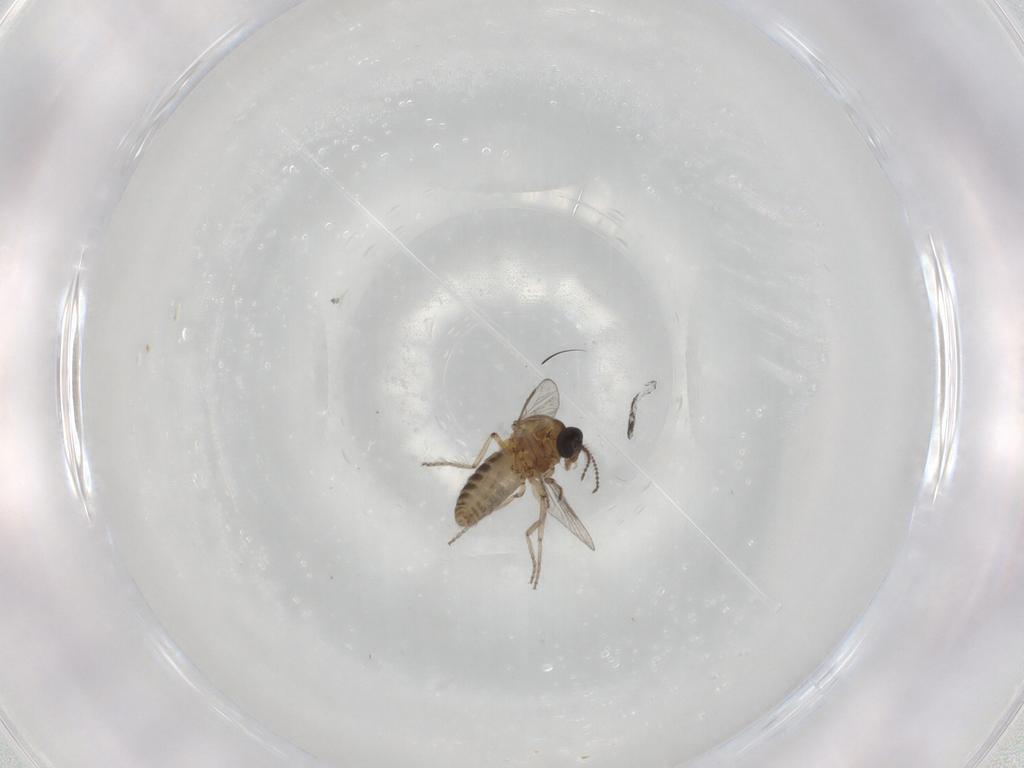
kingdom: Animalia
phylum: Arthropoda
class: Insecta
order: Diptera
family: Ceratopogonidae
